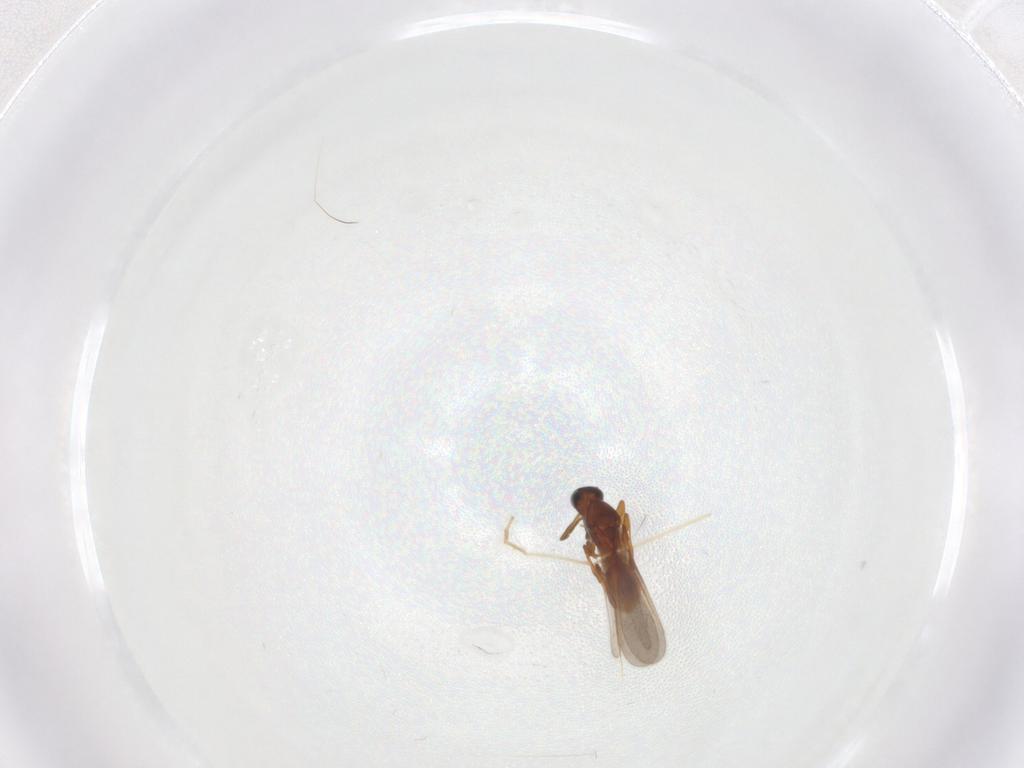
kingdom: Animalia
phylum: Arthropoda
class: Insecta
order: Hymenoptera
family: Platygastridae
